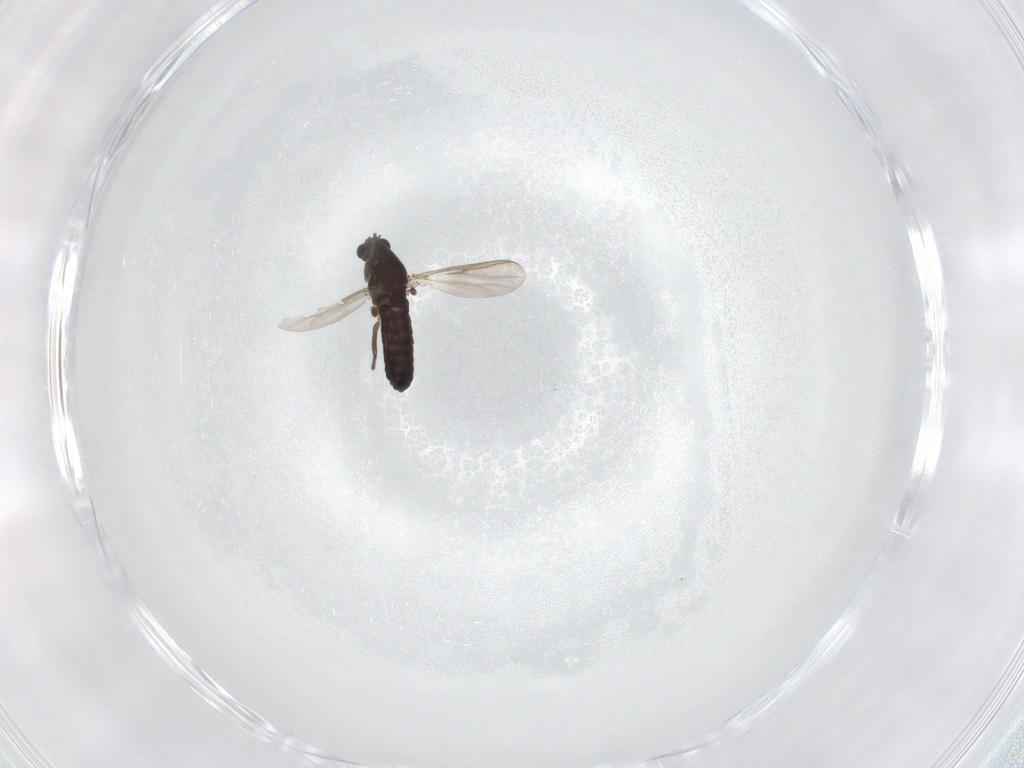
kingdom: Animalia
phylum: Arthropoda
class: Insecta
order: Diptera
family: Chironomidae
